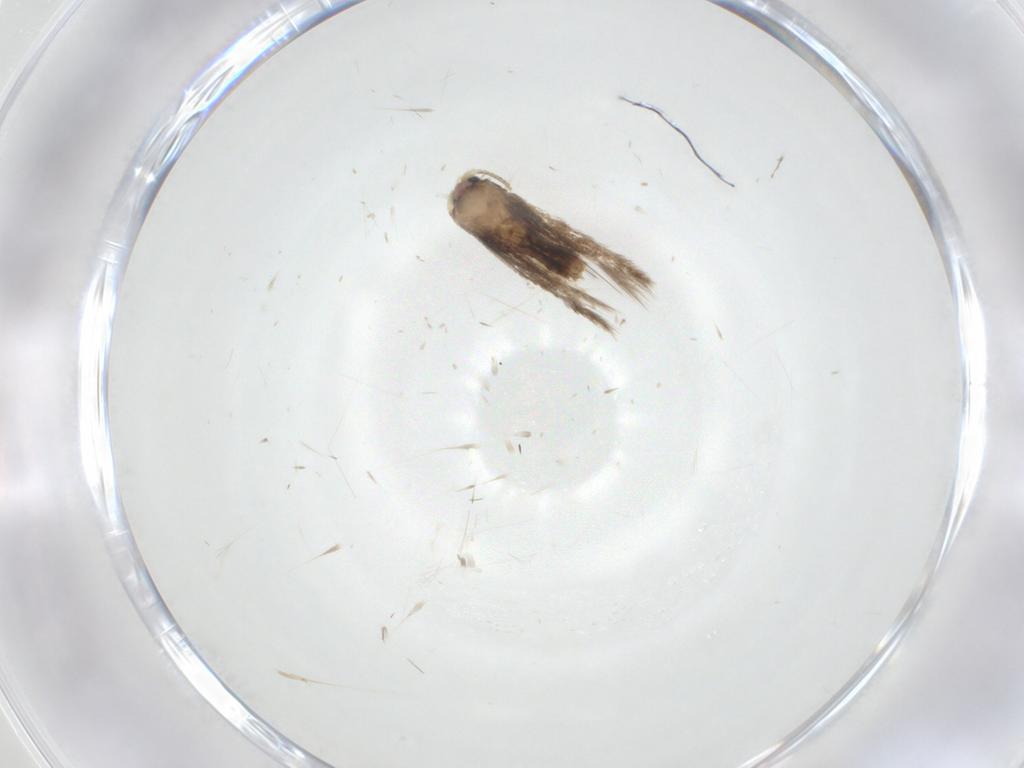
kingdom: Animalia
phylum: Arthropoda
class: Insecta
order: Lepidoptera
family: Nepticulidae
